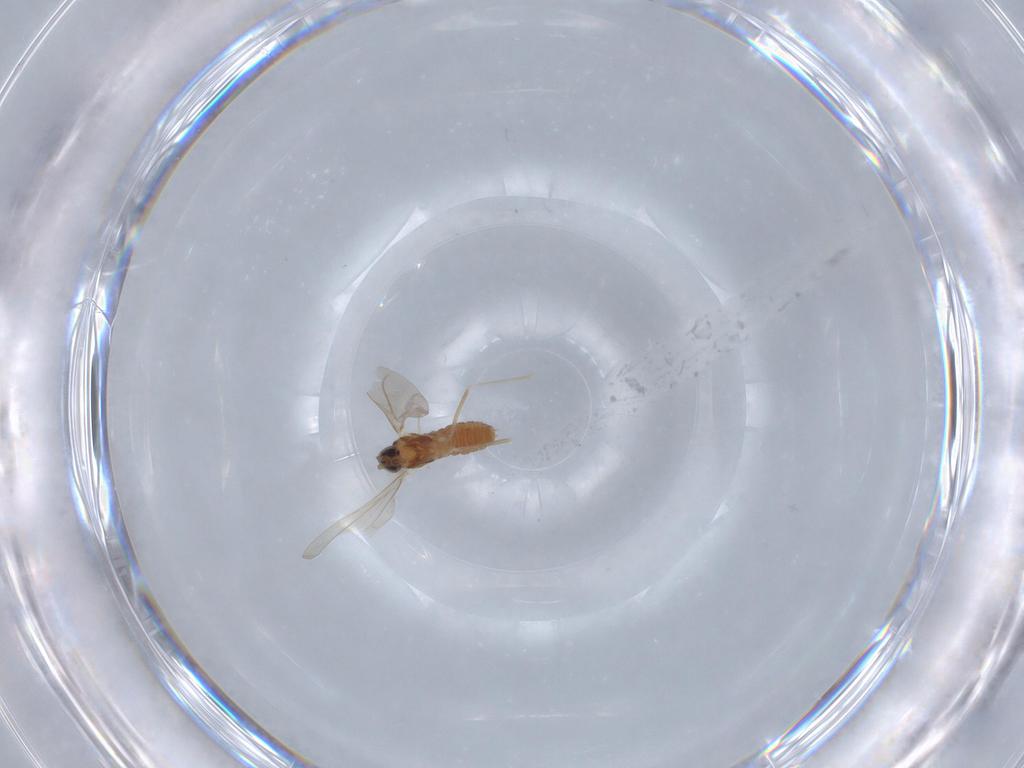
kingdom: Animalia
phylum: Arthropoda
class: Insecta
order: Diptera
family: Cecidomyiidae
